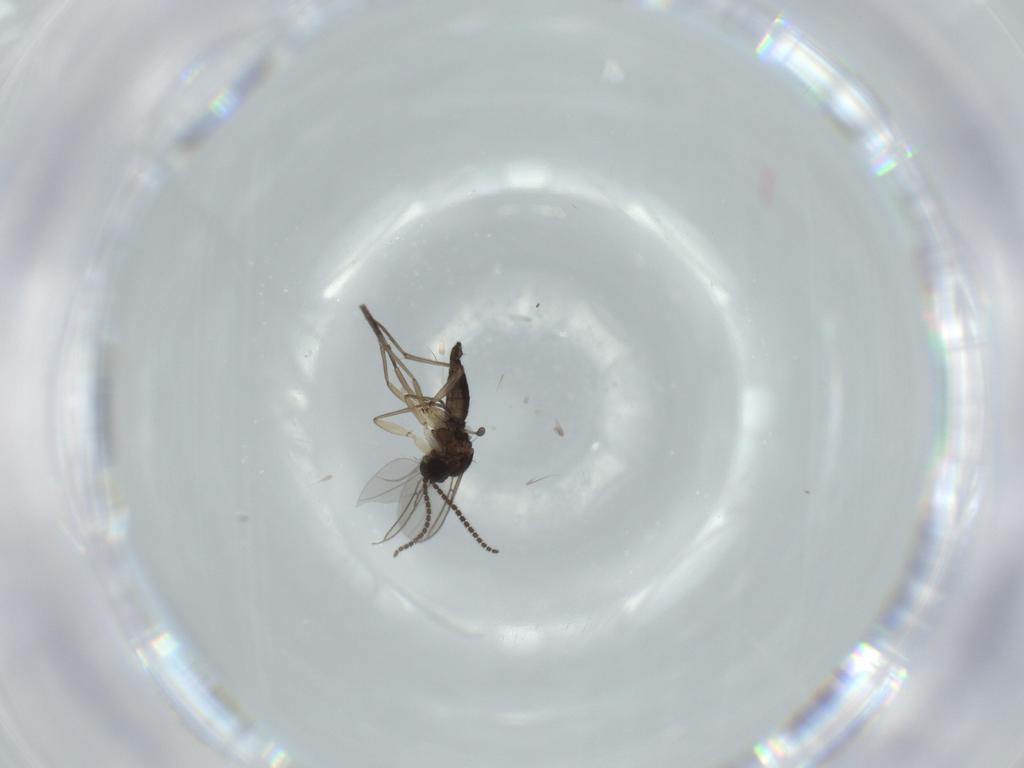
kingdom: Animalia
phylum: Arthropoda
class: Insecta
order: Diptera
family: Sciaridae
